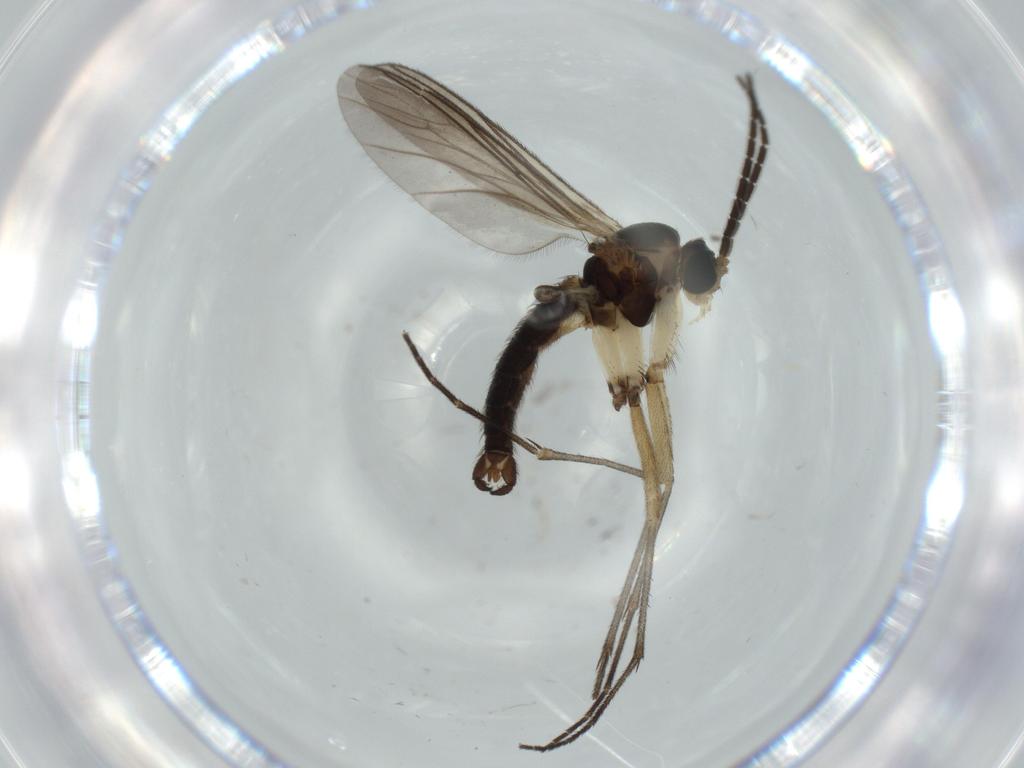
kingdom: Animalia
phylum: Arthropoda
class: Insecta
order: Diptera
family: Sciaridae
